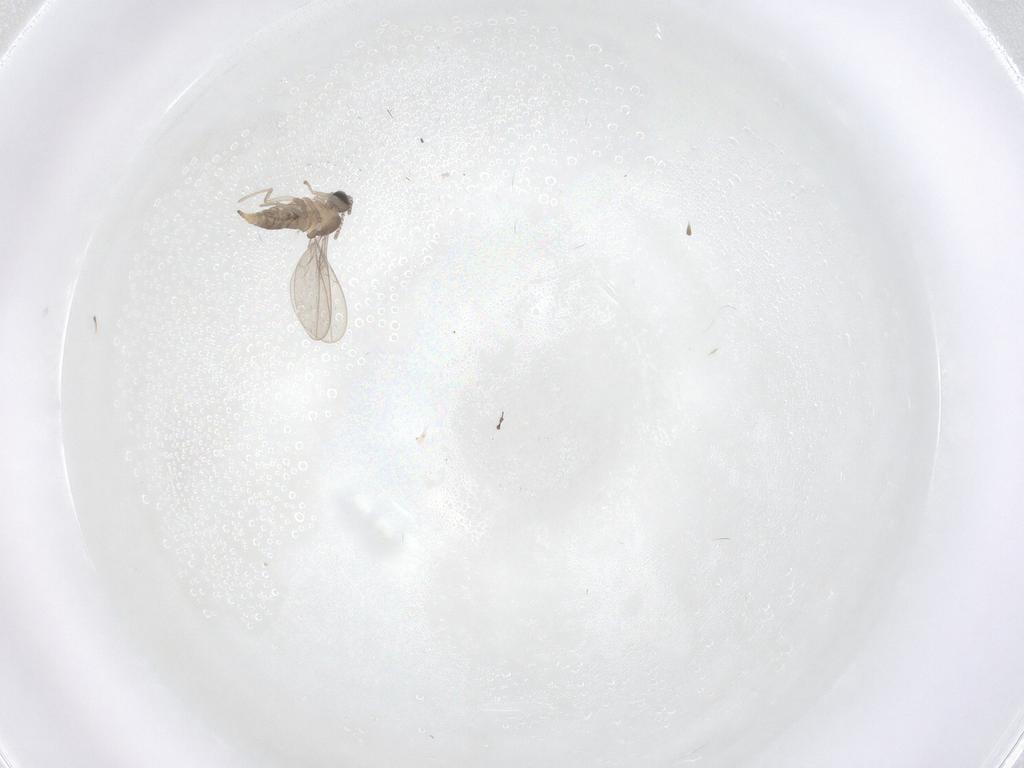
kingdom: Animalia
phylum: Arthropoda
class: Insecta
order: Diptera
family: Cecidomyiidae
